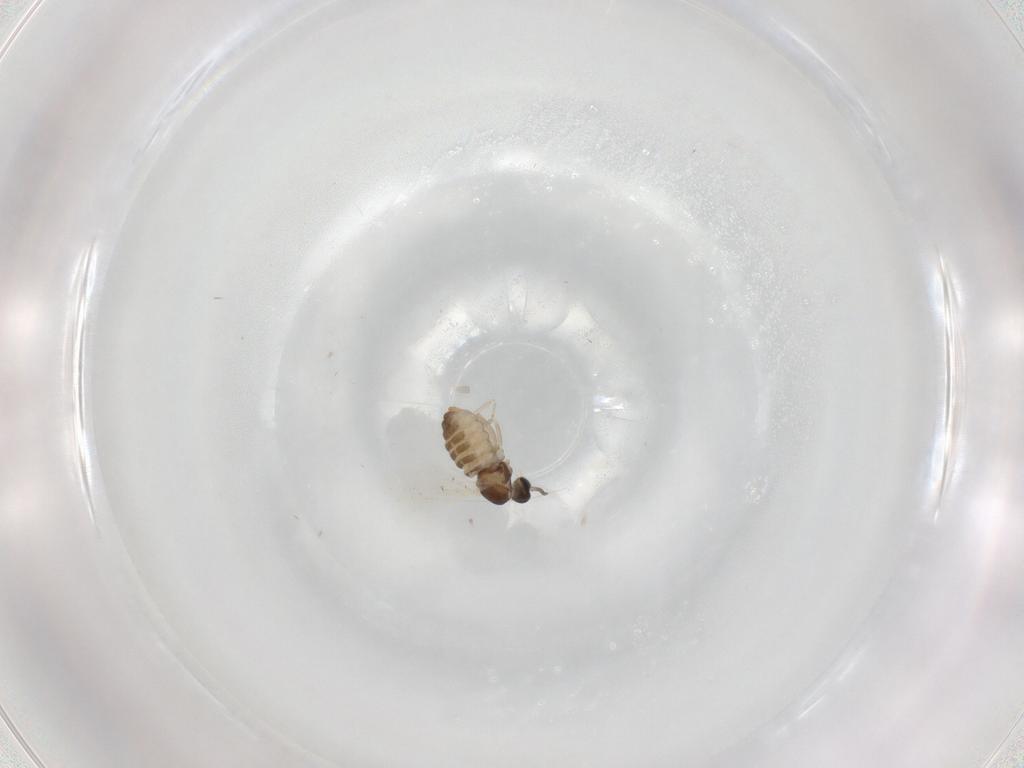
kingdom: Animalia
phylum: Arthropoda
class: Insecta
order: Diptera
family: Cecidomyiidae
